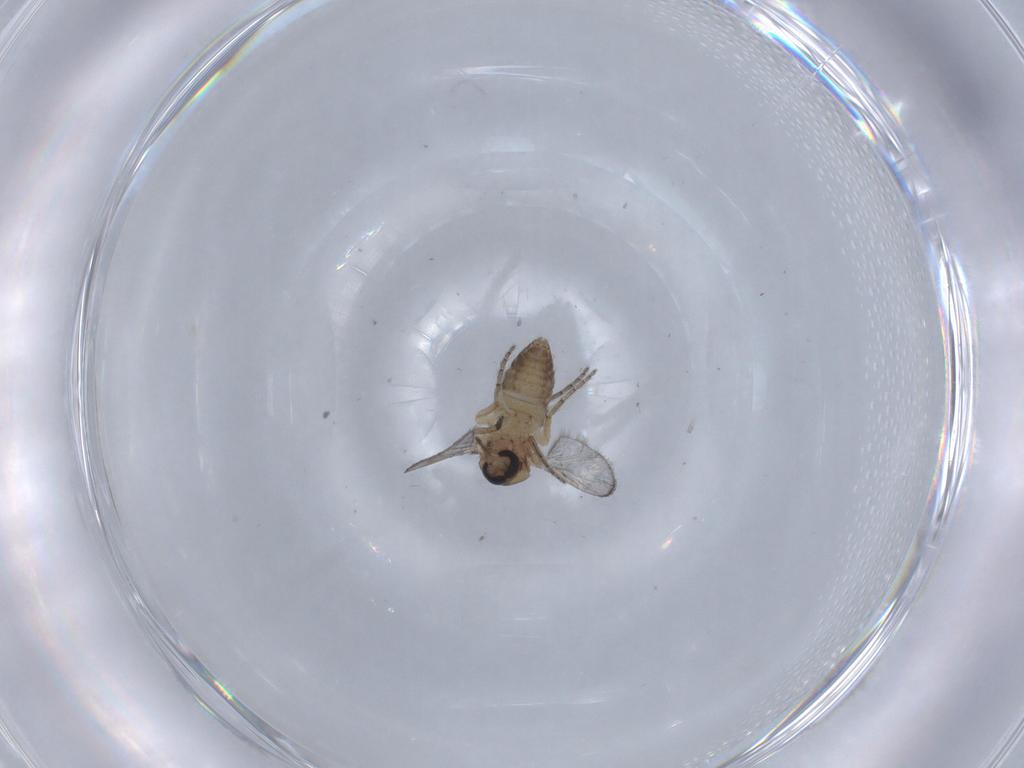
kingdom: Animalia
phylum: Arthropoda
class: Insecta
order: Diptera
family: Ceratopogonidae
